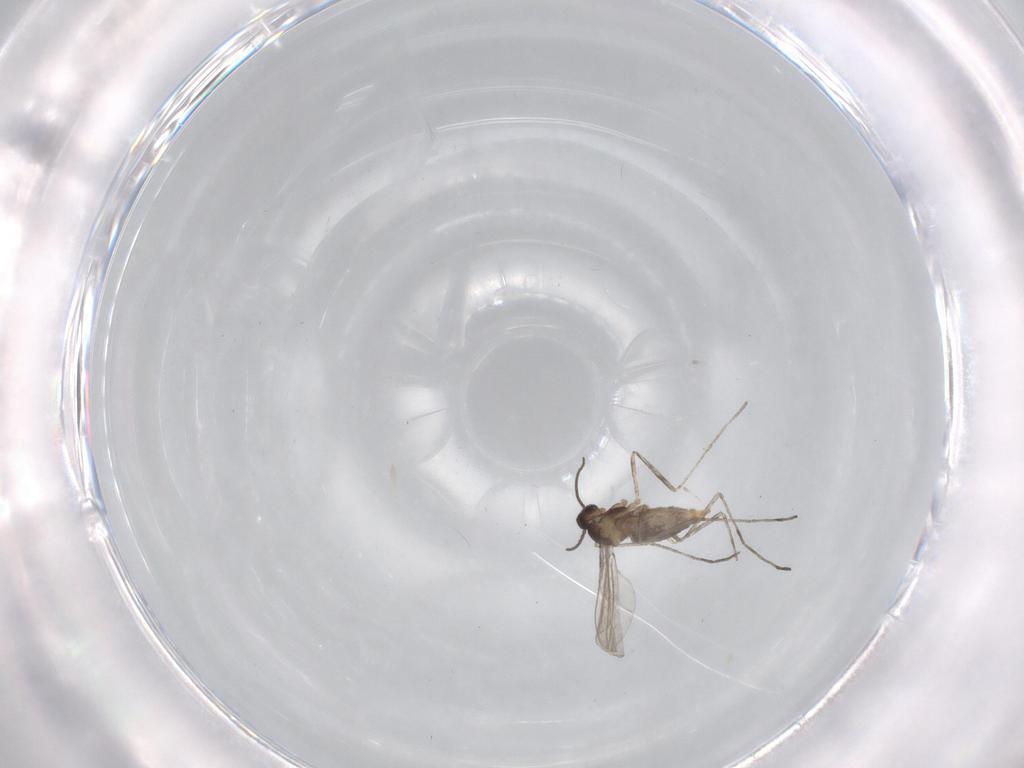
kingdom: Animalia
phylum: Arthropoda
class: Insecta
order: Diptera
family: Cecidomyiidae
